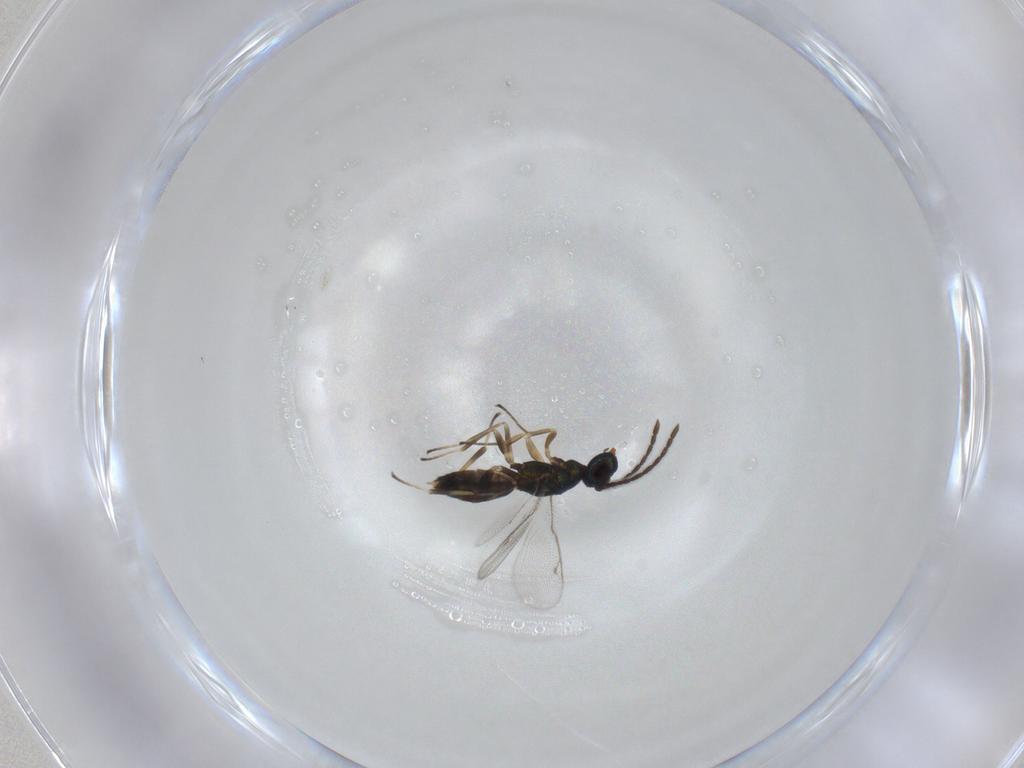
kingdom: Animalia
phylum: Arthropoda
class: Insecta
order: Hymenoptera
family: Eupelmidae
